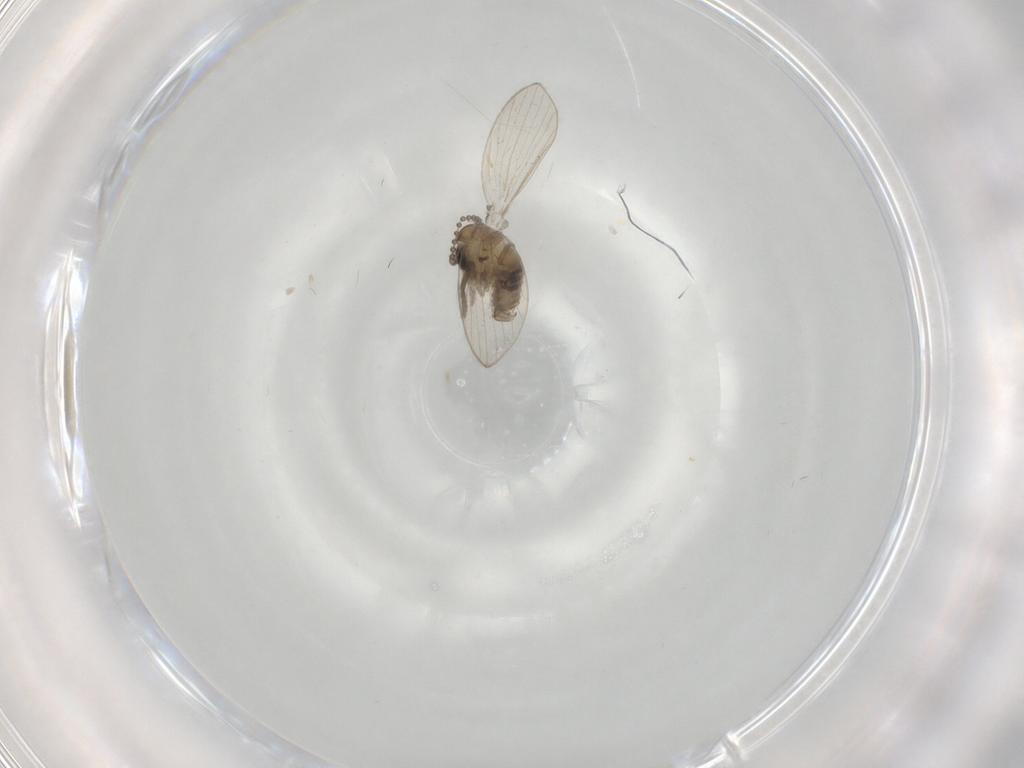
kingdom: Animalia
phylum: Arthropoda
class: Insecta
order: Diptera
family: Psychodidae
